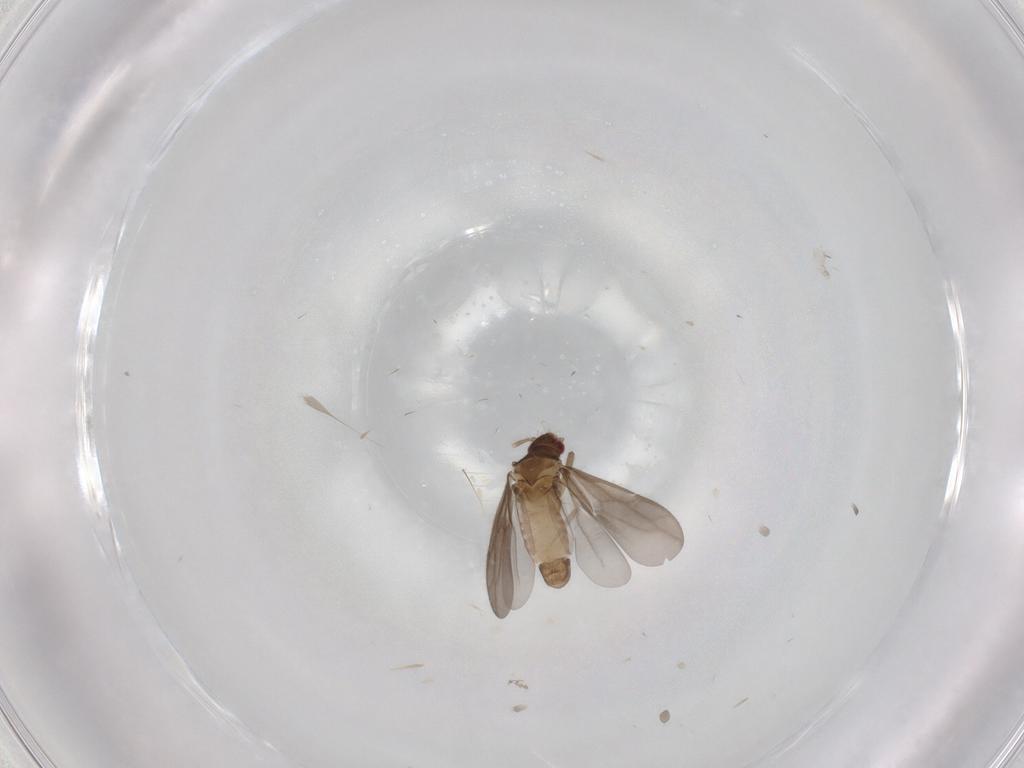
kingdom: Animalia
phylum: Arthropoda
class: Insecta
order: Hemiptera
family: Ceratocombidae
